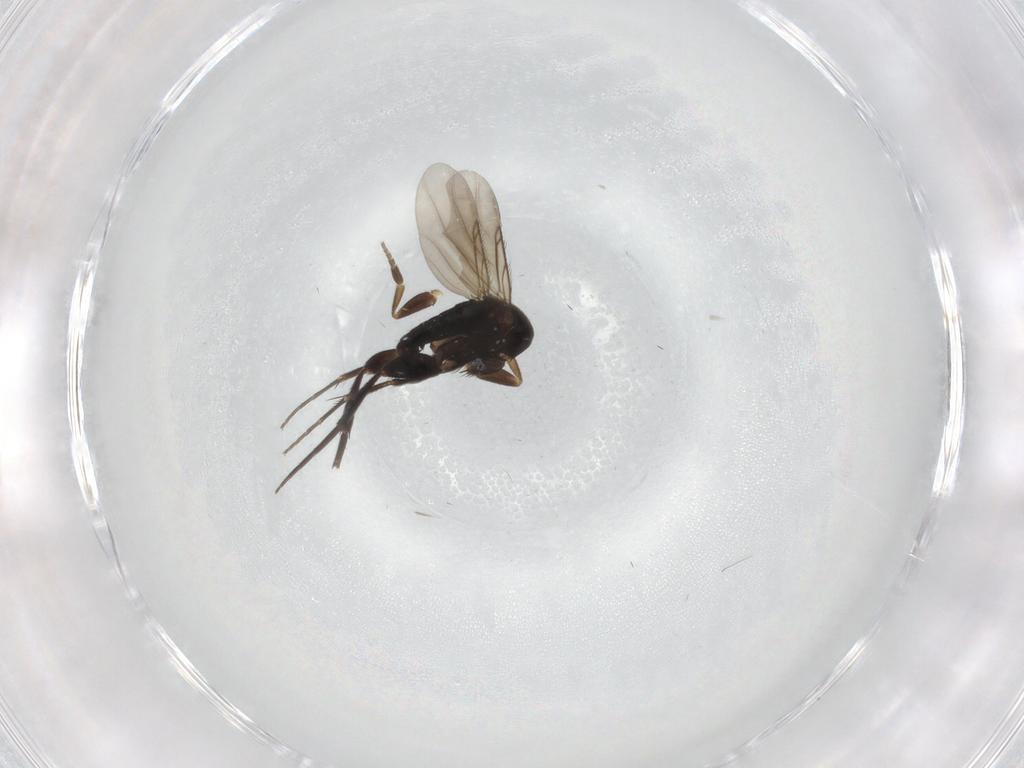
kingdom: Animalia
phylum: Arthropoda
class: Insecta
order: Diptera
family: Phoridae
